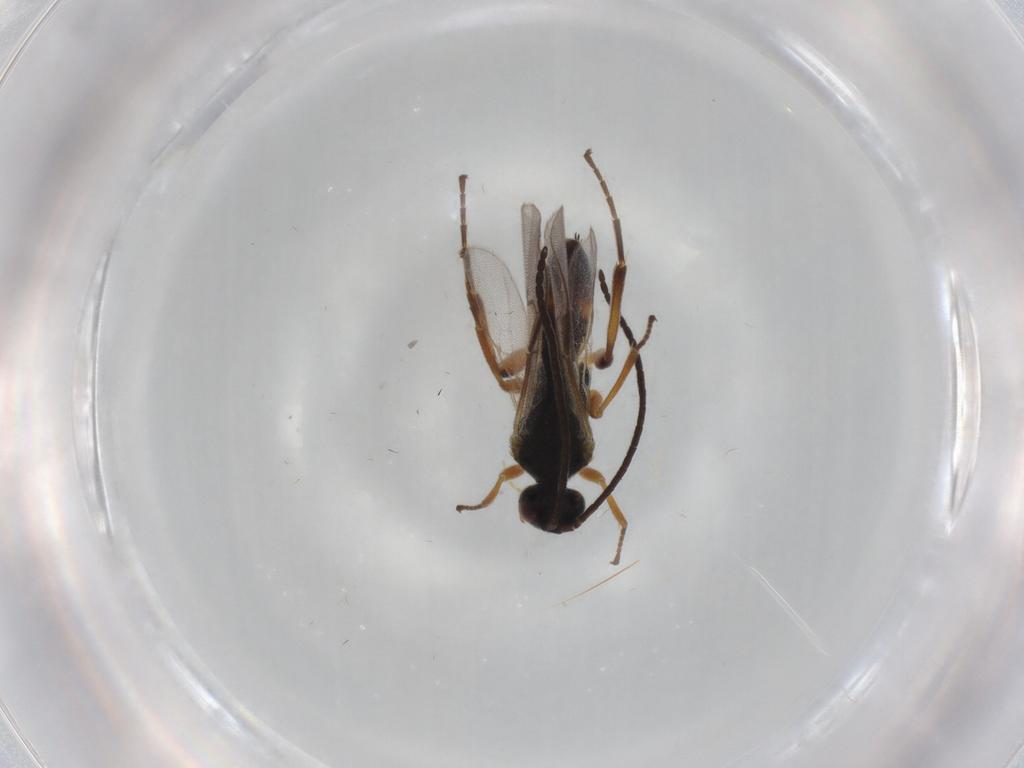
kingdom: Animalia
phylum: Arthropoda
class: Insecta
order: Hymenoptera
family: Braconidae
